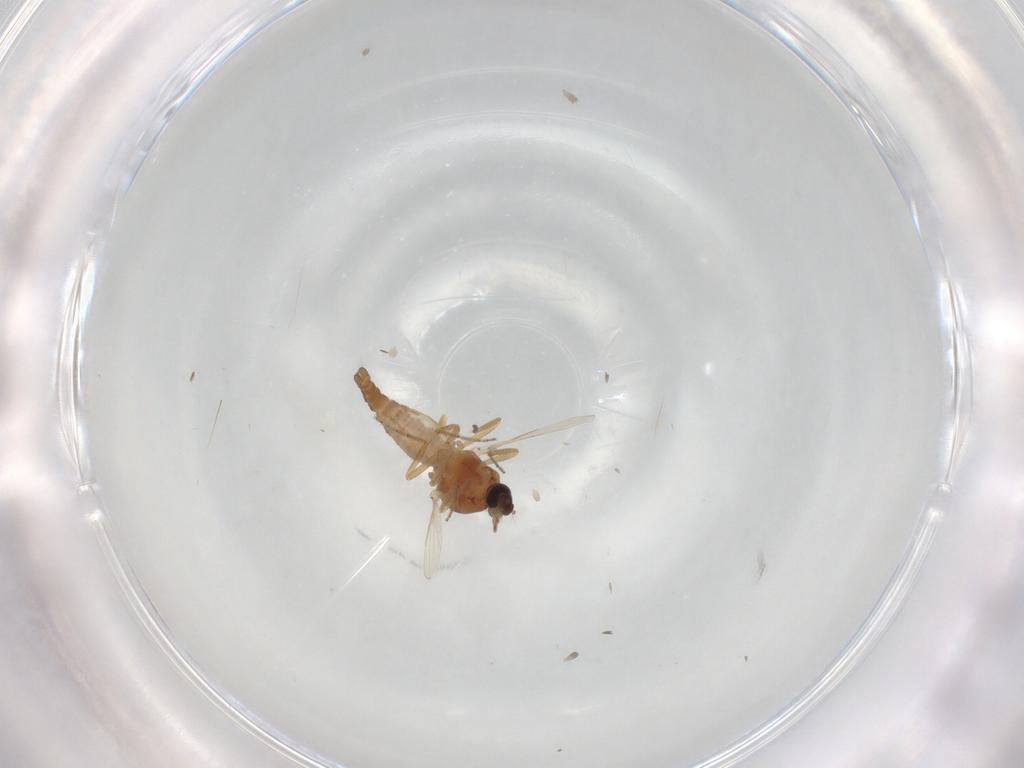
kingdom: Animalia
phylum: Arthropoda
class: Insecta
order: Diptera
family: Ceratopogonidae
